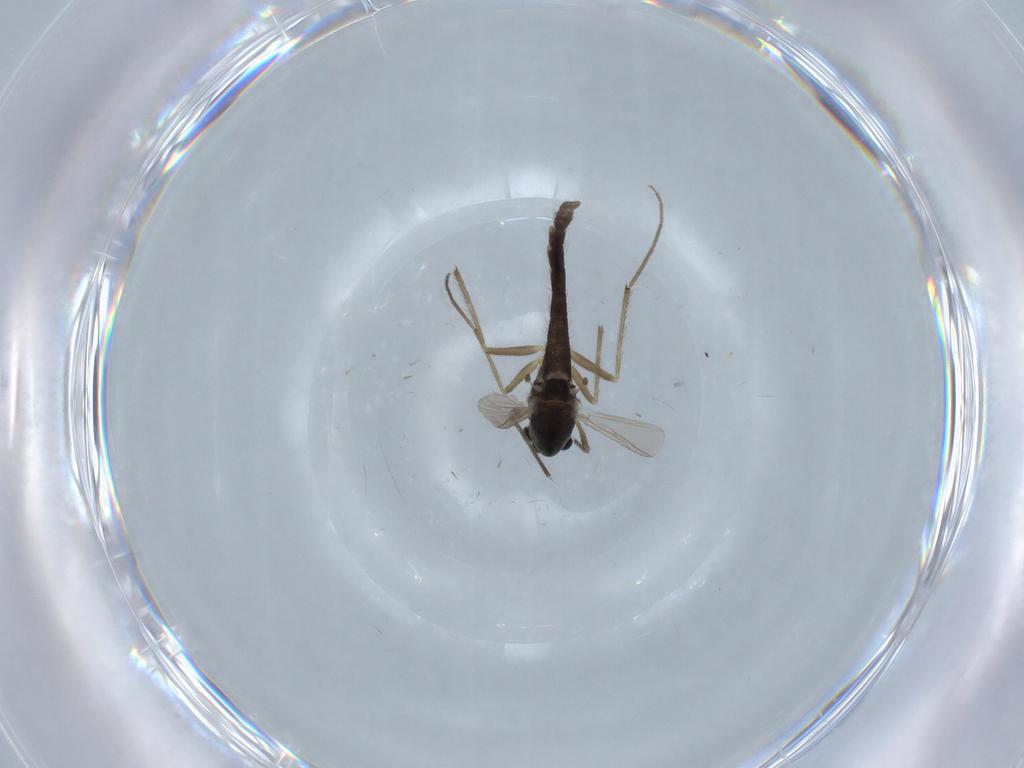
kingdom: Animalia
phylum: Arthropoda
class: Insecta
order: Diptera
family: Chironomidae
